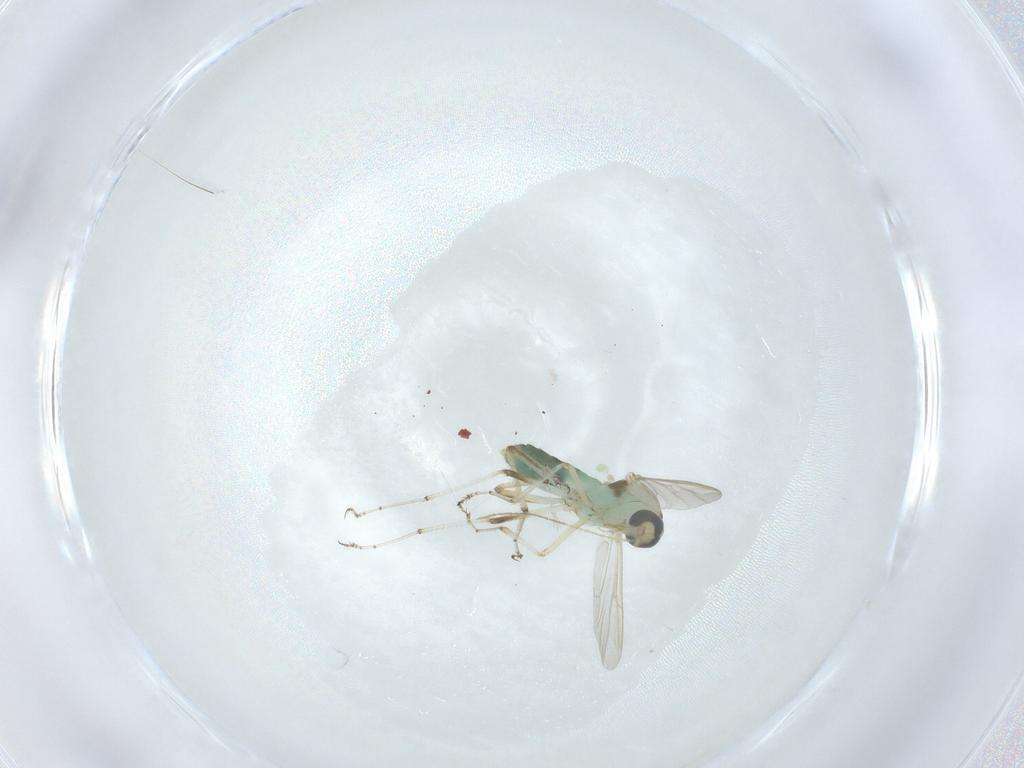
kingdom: Animalia
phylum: Arthropoda
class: Insecta
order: Diptera
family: Ceratopogonidae
